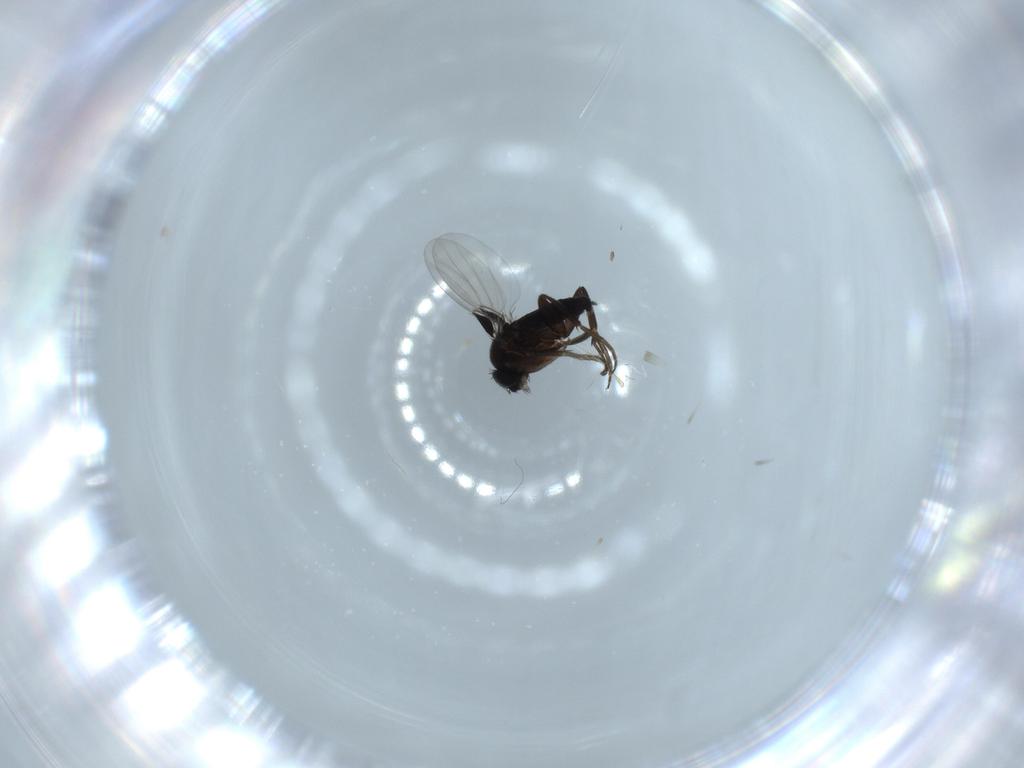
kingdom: Animalia
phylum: Arthropoda
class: Insecta
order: Diptera
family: Phoridae
